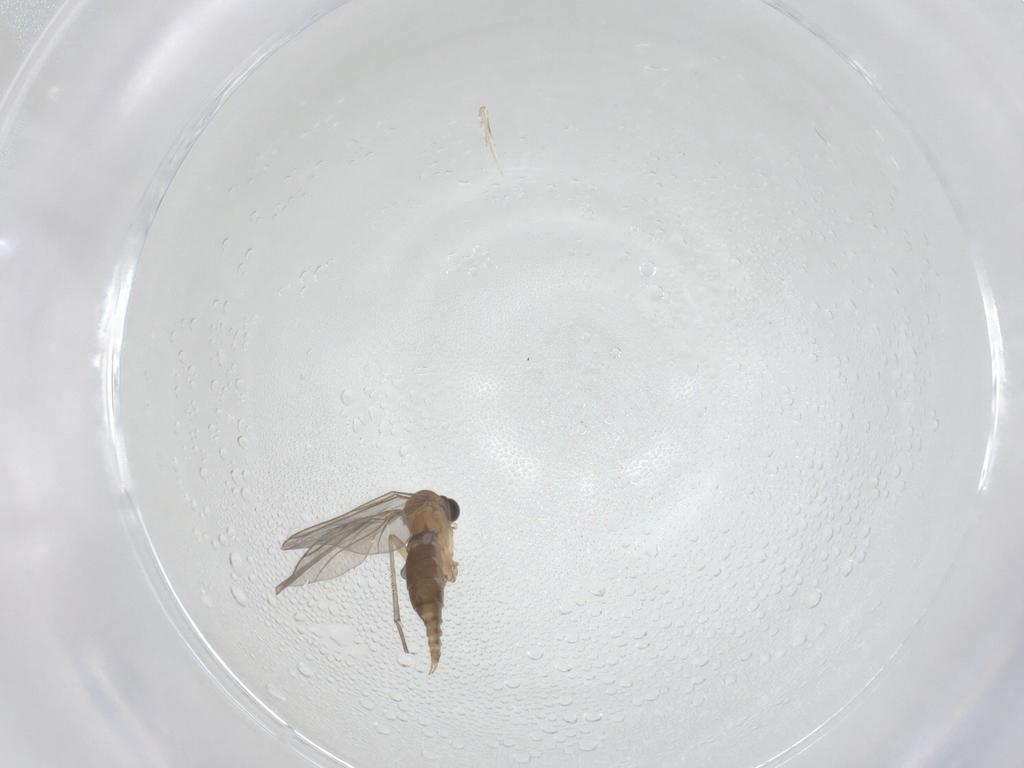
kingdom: Animalia
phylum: Arthropoda
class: Insecta
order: Diptera
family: Sciaridae
